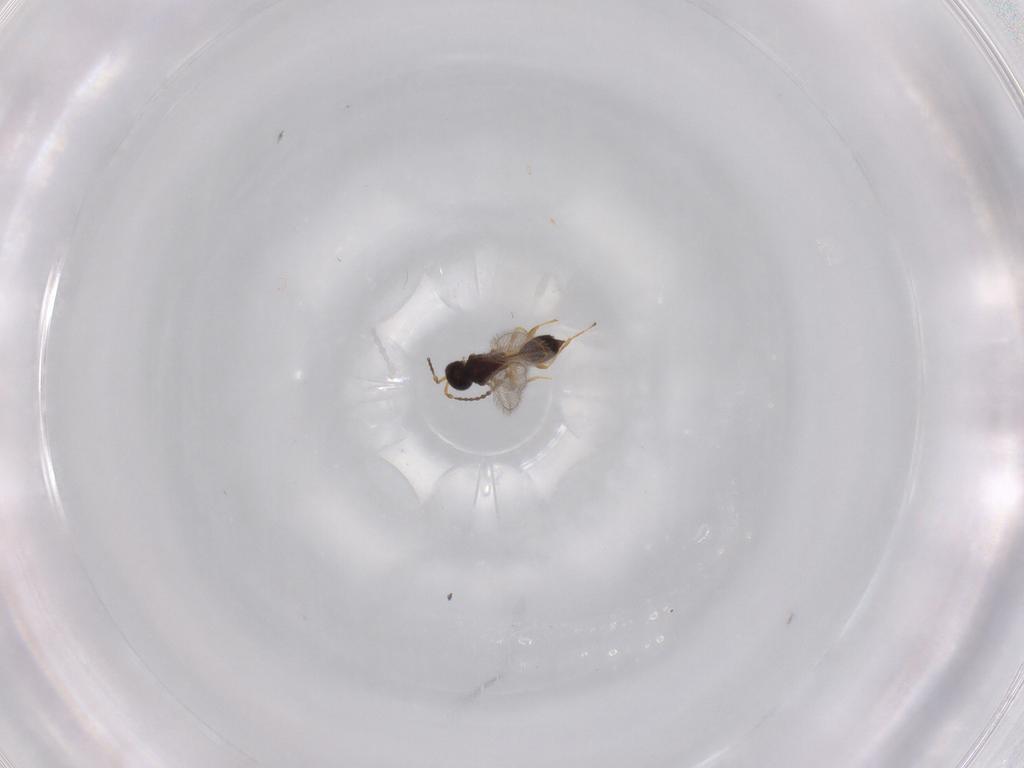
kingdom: Animalia
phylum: Arthropoda
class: Insecta
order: Hymenoptera
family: Diapriidae
